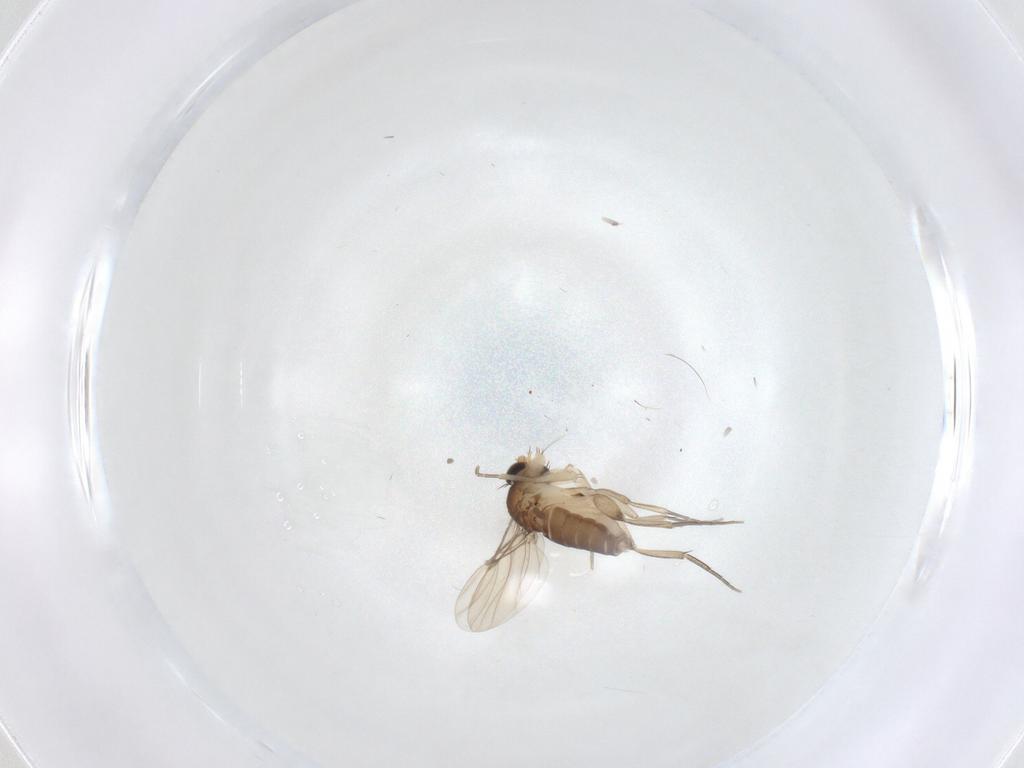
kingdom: Animalia
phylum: Arthropoda
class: Insecta
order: Diptera
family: Phoridae
